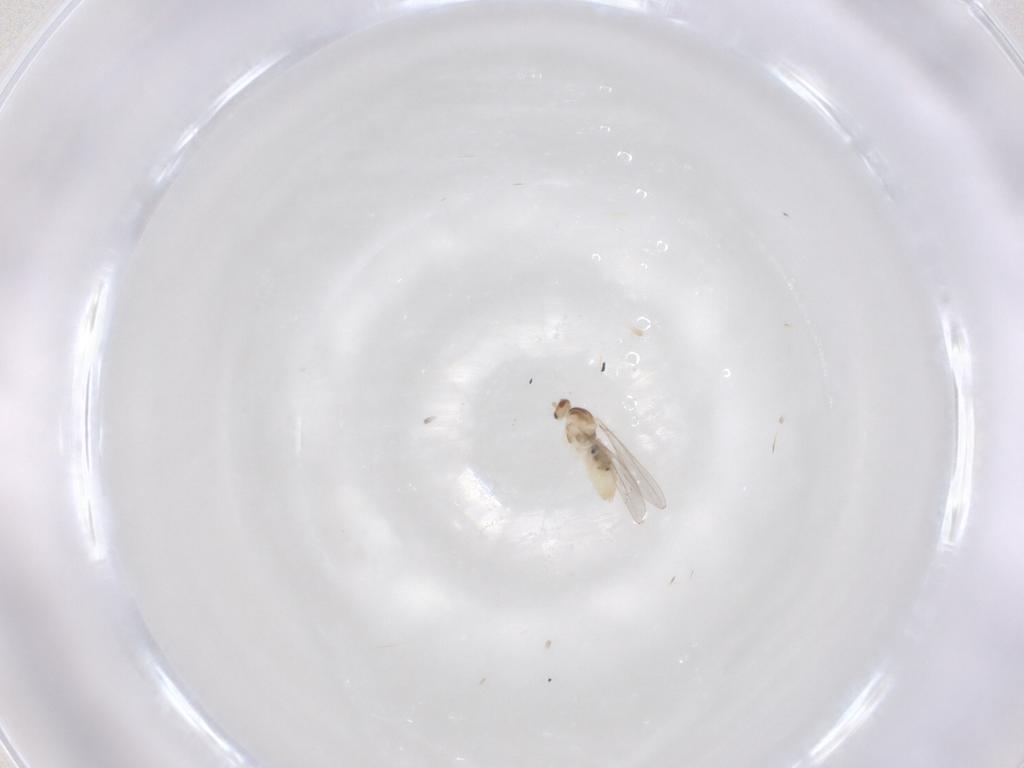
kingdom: Animalia
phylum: Arthropoda
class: Insecta
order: Diptera
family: Cecidomyiidae
